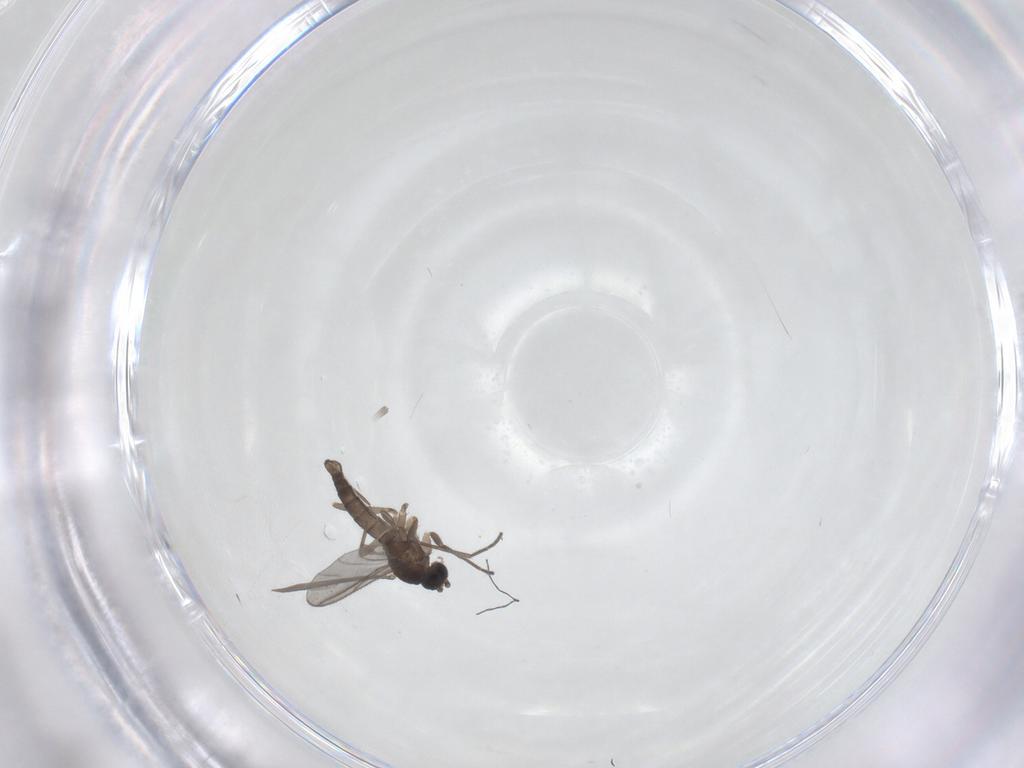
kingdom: Animalia
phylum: Arthropoda
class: Insecta
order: Diptera
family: Sciaridae
